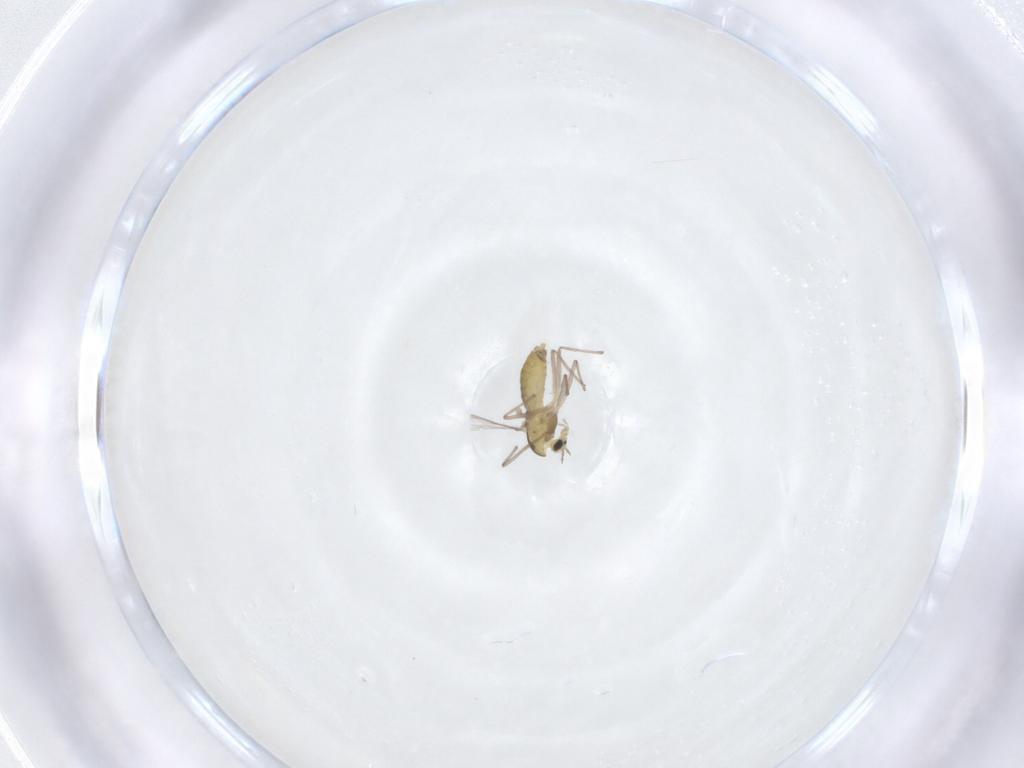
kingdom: Animalia
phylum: Arthropoda
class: Insecta
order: Diptera
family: Chironomidae
